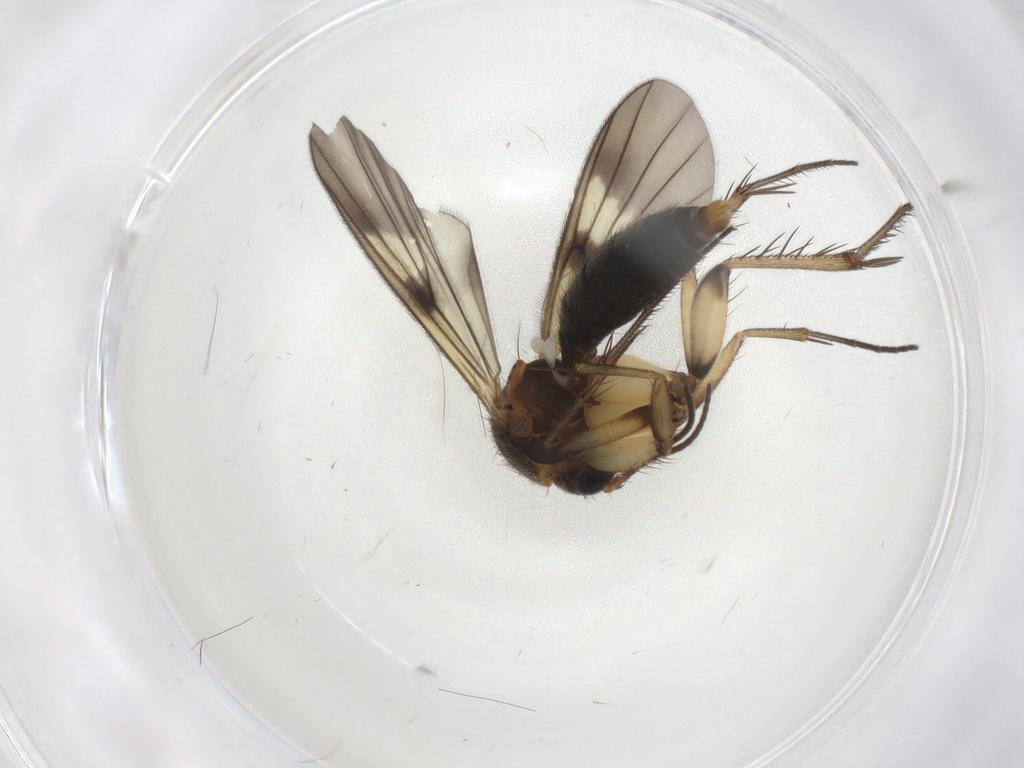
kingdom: Animalia
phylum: Arthropoda
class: Insecta
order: Diptera
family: Mycetophilidae
